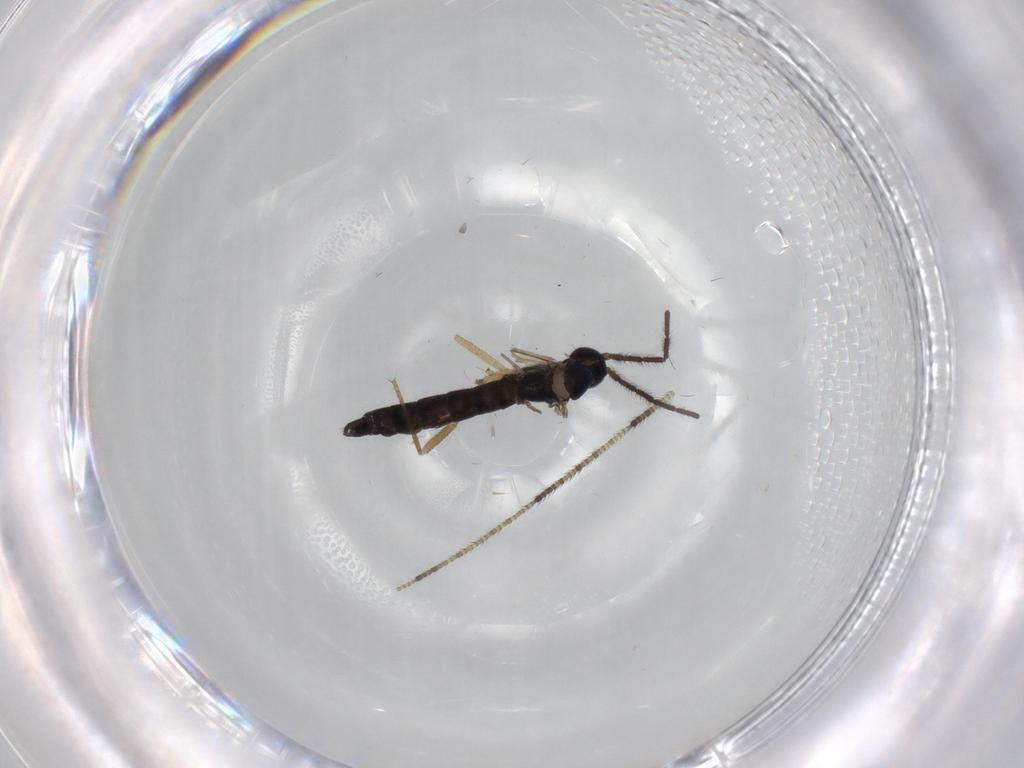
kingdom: Animalia
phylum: Arthropoda
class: Insecta
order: Diptera
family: Sciaridae
